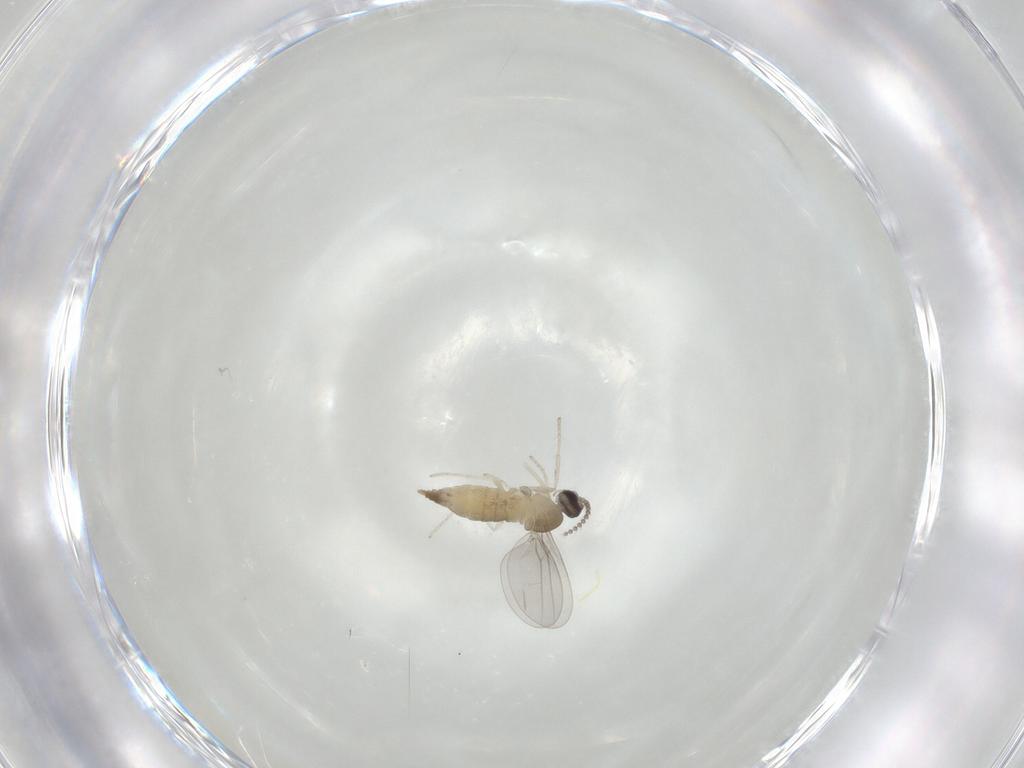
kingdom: Animalia
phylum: Arthropoda
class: Insecta
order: Diptera
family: Cecidomyiidae
